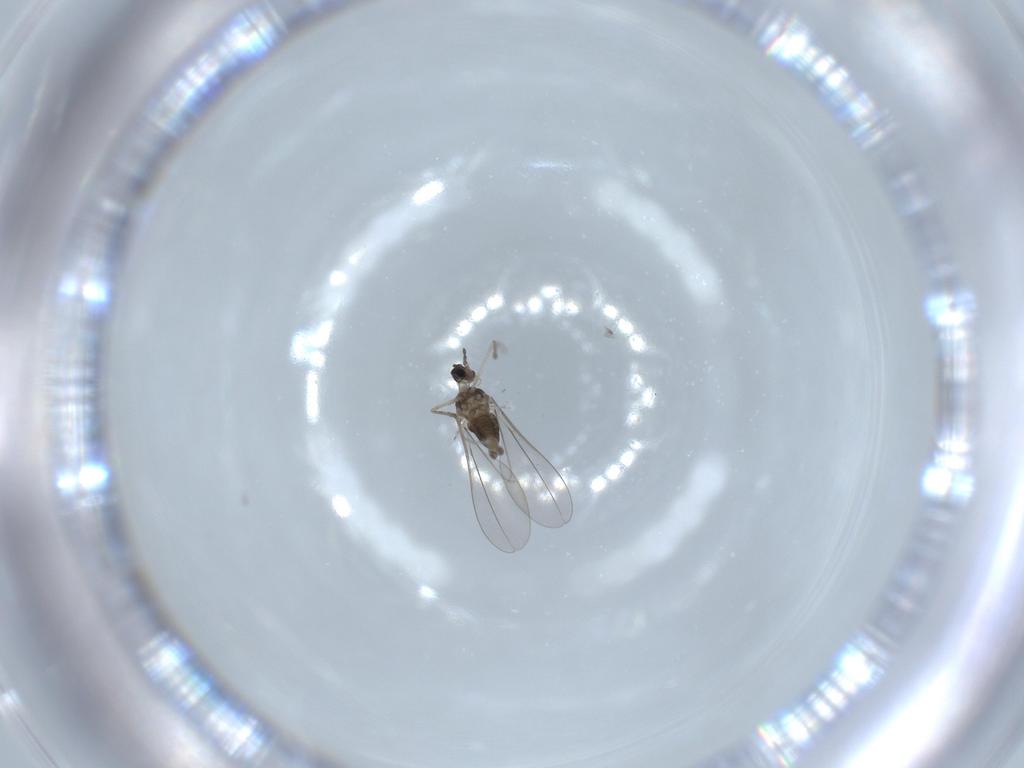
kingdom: Animalia
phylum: Arthropoda
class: Insecta
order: Diptera
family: Cecidomyiidae
